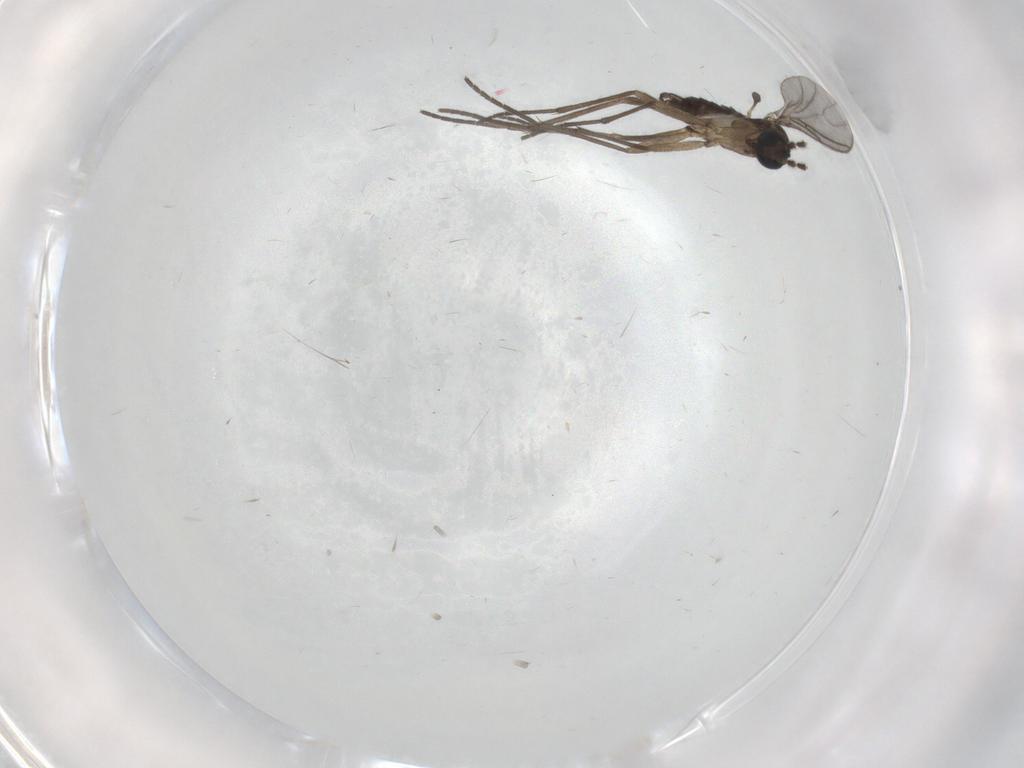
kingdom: Animalia
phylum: Arthropoda
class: Insecta
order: Diptera
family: Sciaridae
